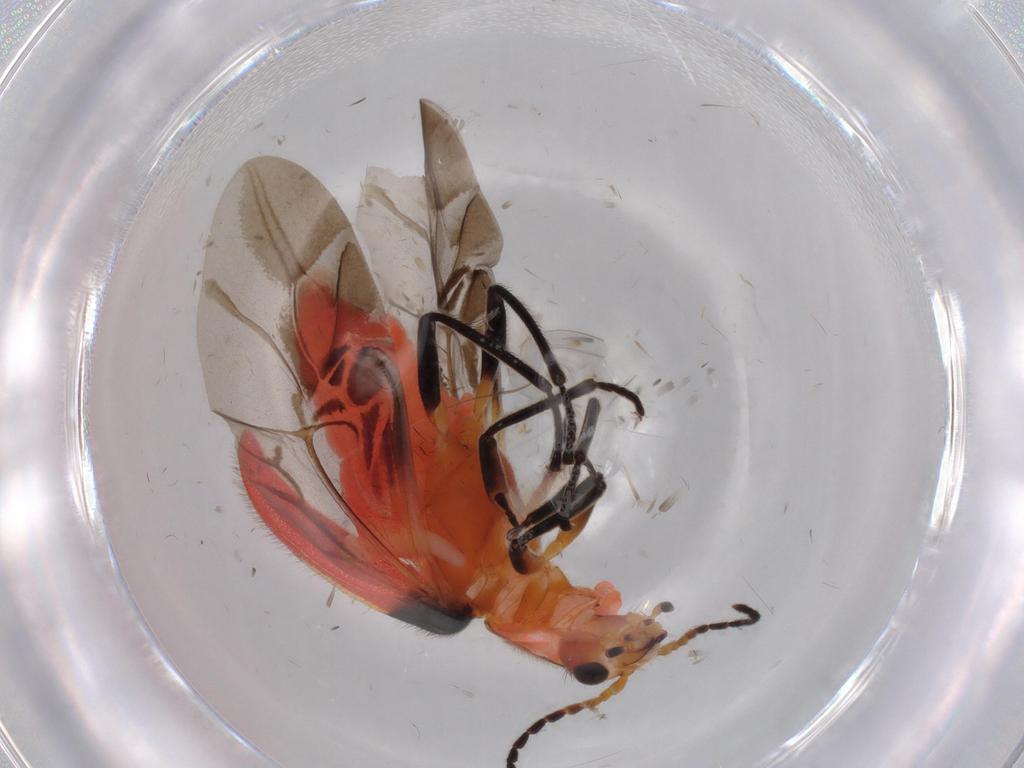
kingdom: Animalia
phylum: Arthropoda
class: Insecta
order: Coleoptera
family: Melyridae
